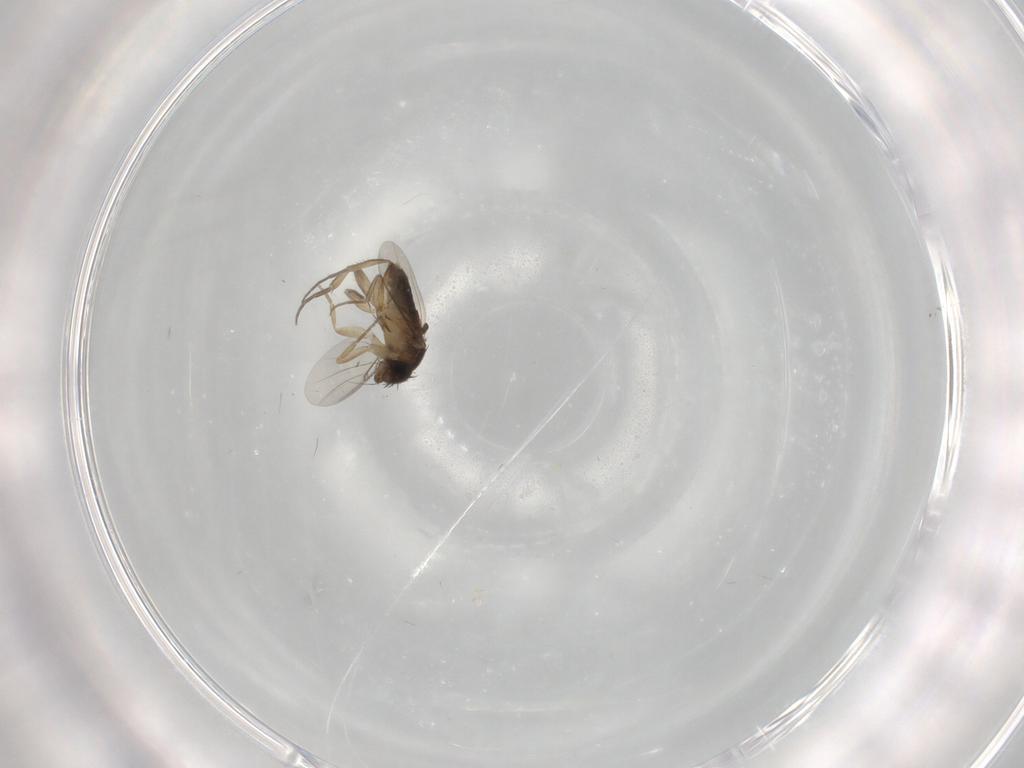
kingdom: Animalia
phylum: Arthropoda
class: Insecta
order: Diptera
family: Phoridae
